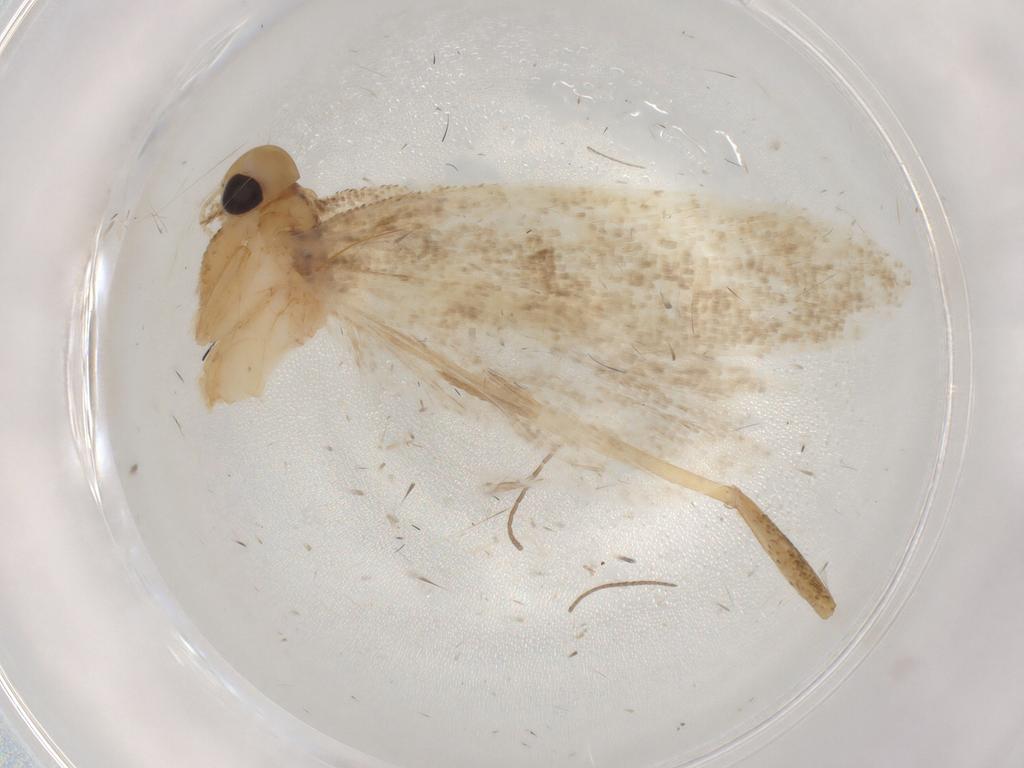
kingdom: Animalia
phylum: Arthropoda
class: Insecta
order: Lepidoptera
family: Crambidae
